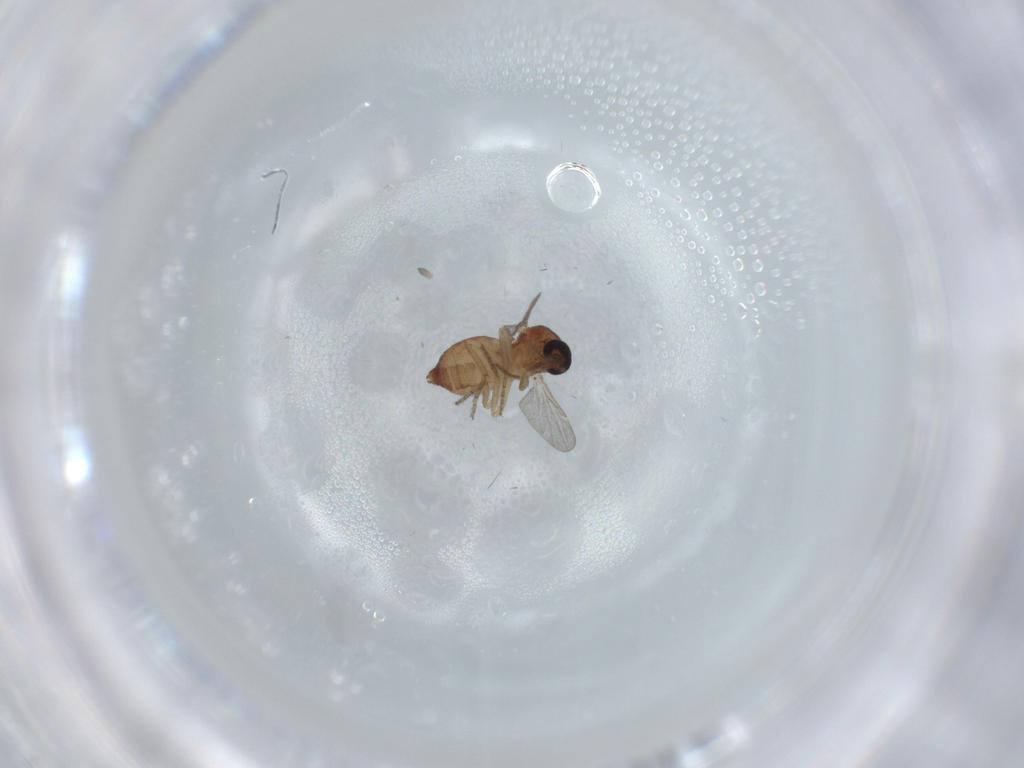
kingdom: Animalia
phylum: Arthropoda
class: Insecta
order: Diptera
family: Ceratopogonidae
